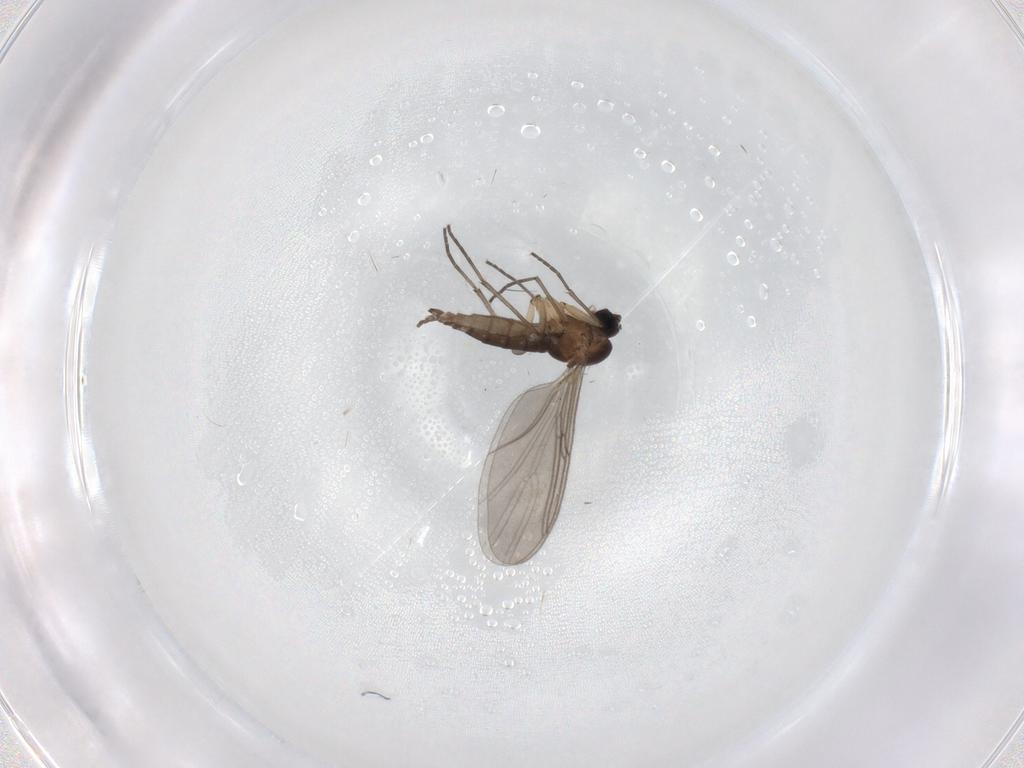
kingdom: Animalia
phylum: Arthropoda
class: Insecta
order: Diptera
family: Sciaridae
